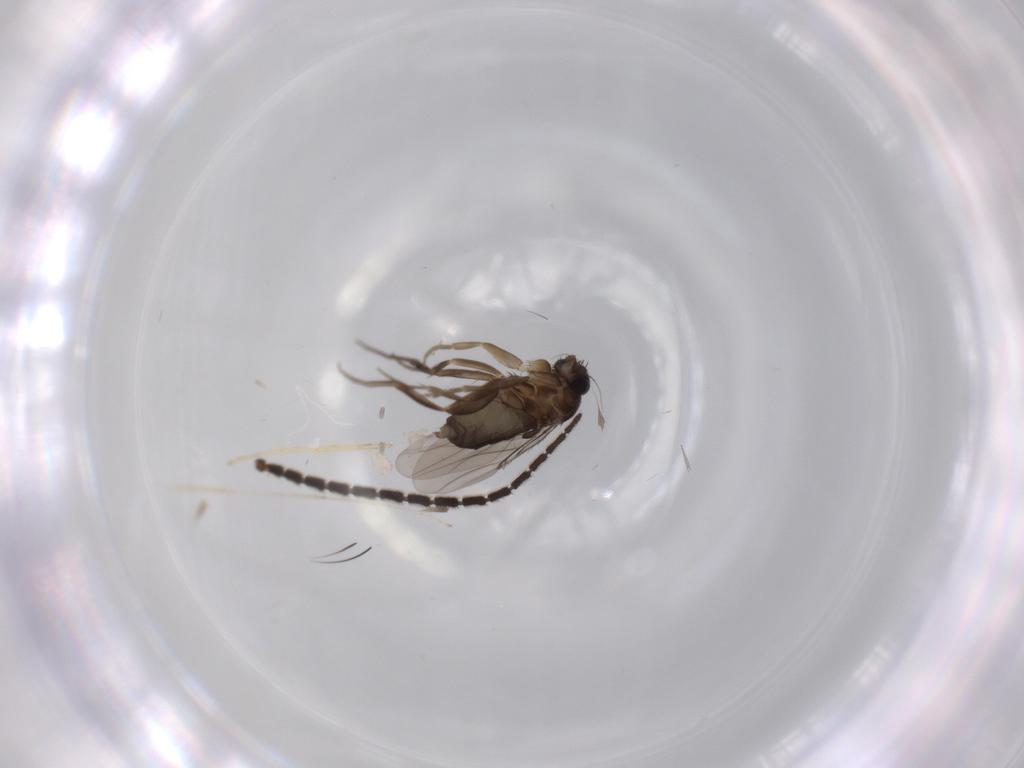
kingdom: Animalia
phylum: Arthropoda
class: Insecta
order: Diptera
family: Cecidomyiidae
